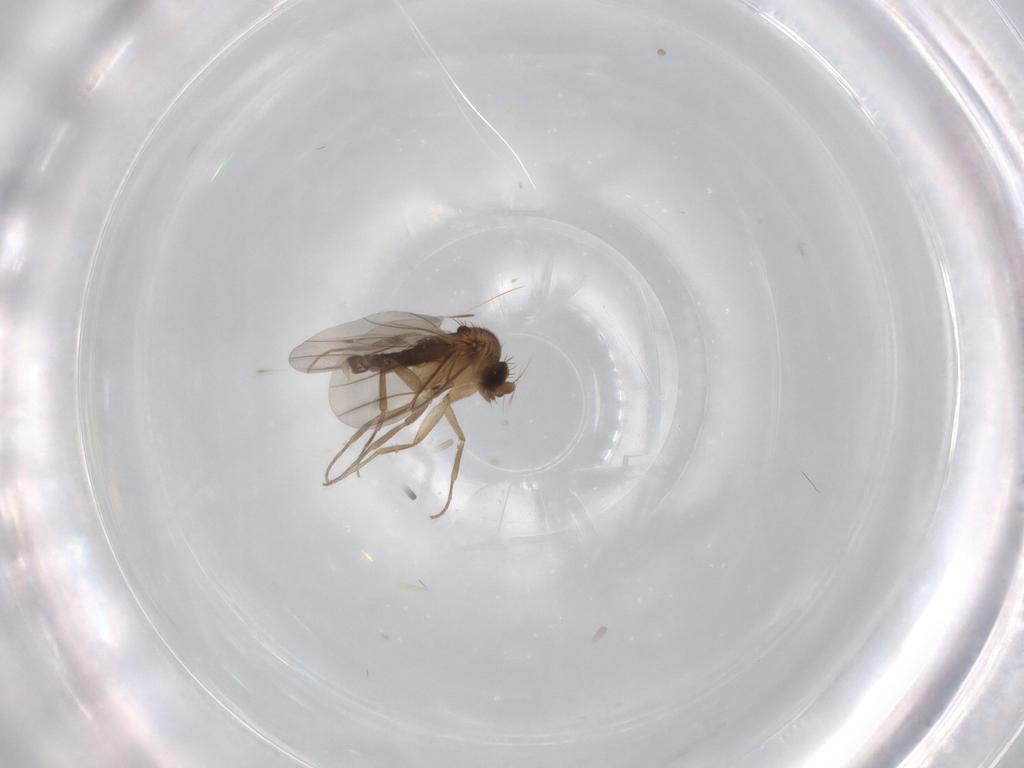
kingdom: Animalia
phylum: Arthropoda
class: Insecta
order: Diptera
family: Phoridae
